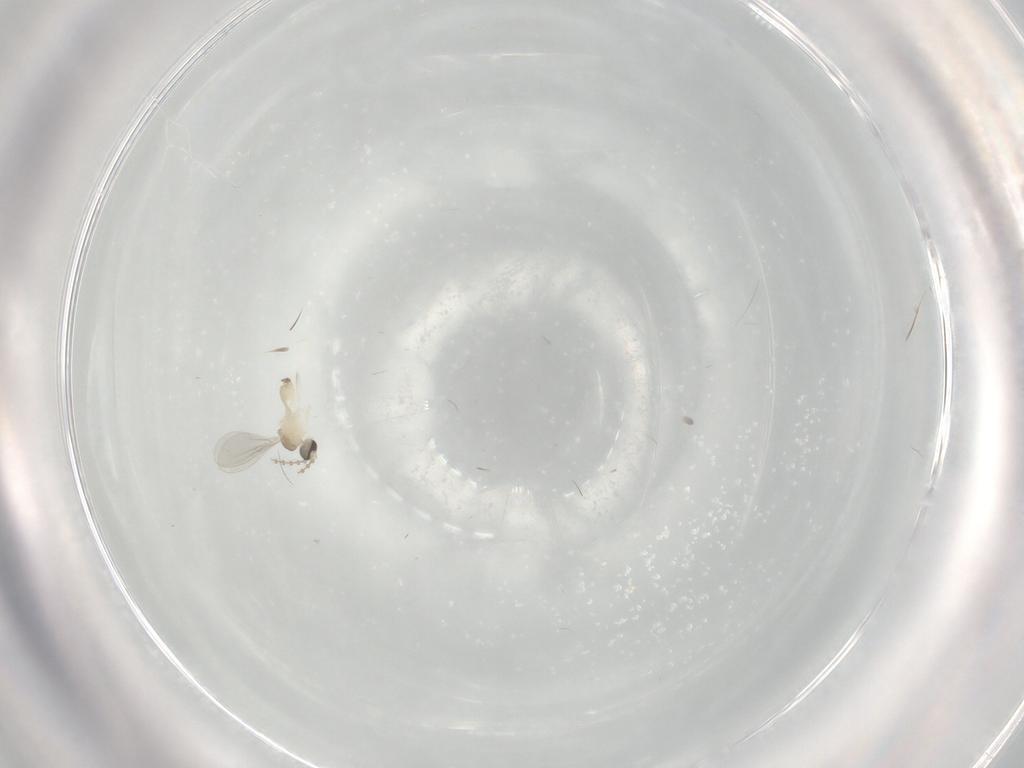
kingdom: Animalia
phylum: Arthropoda
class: Insecta
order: Diptera
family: Cecidomyiidae
